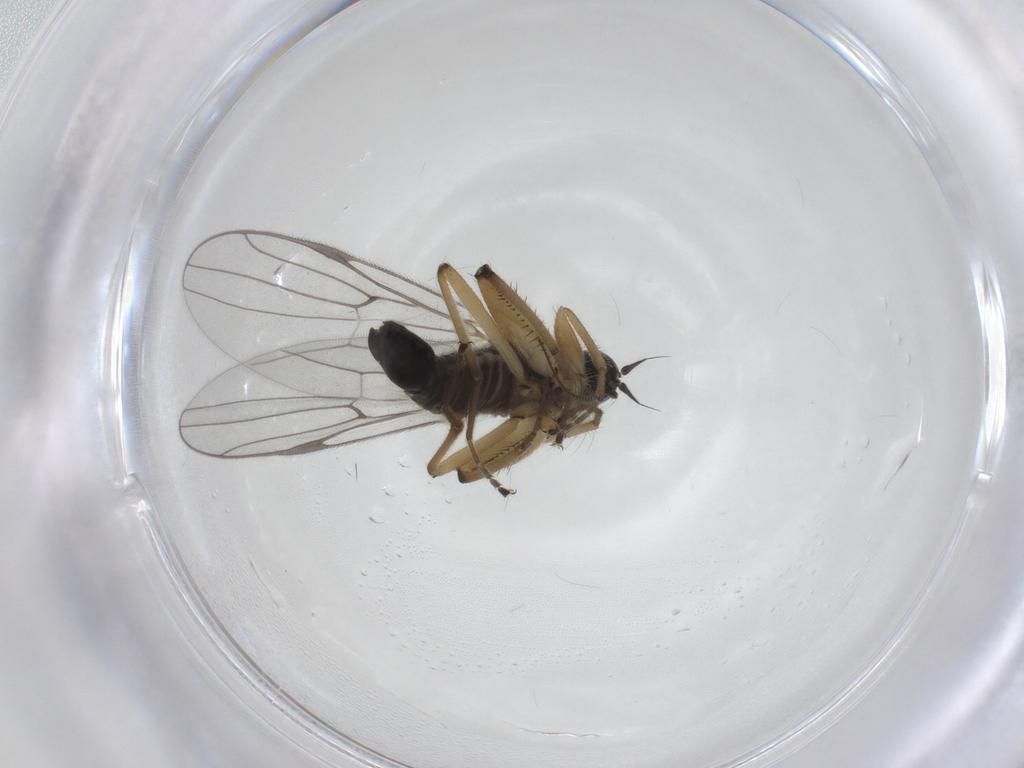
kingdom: Animalia
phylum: Arthropoda
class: Insecta
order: Diptera
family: Hybotidae
